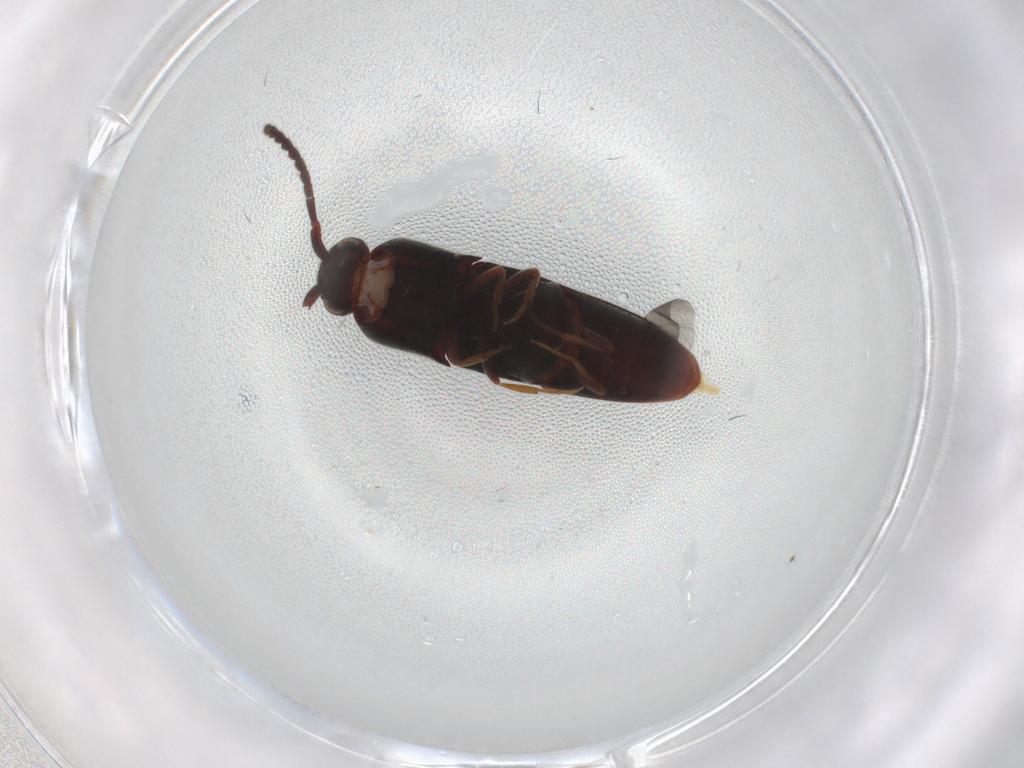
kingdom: Animalia
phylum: Arthropoda
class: Insecta
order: Coleoptera
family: Eucnemidae
